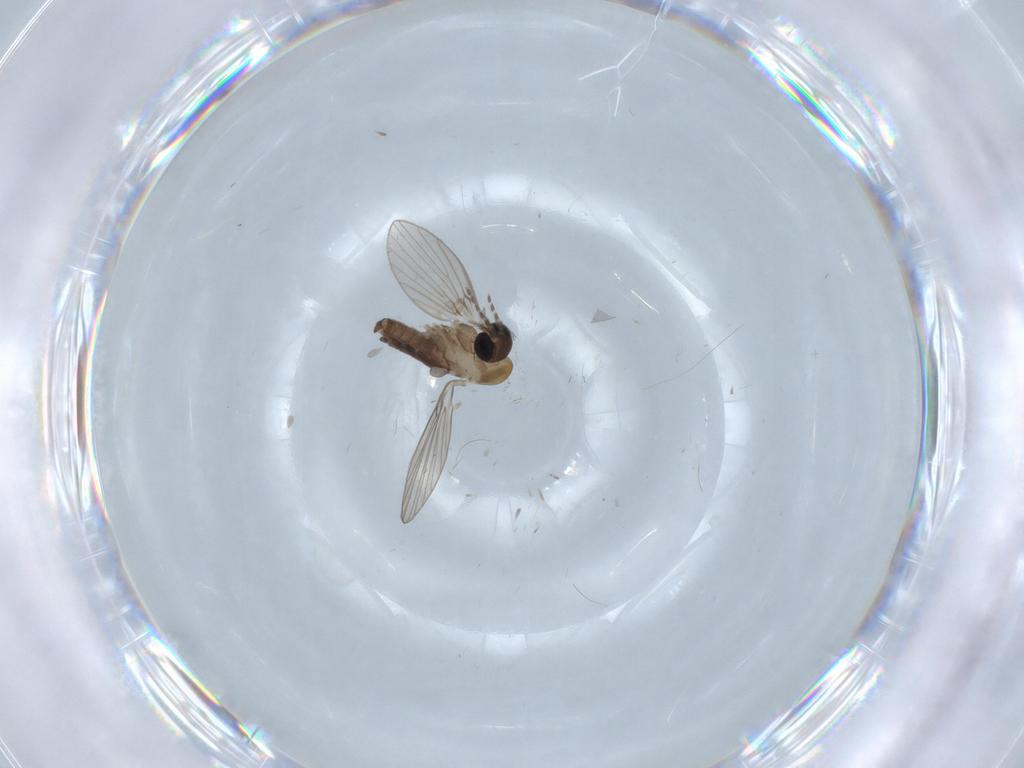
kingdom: Animalia
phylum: Arthropoda
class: Insecta
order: Diptera
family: Psychodidae
